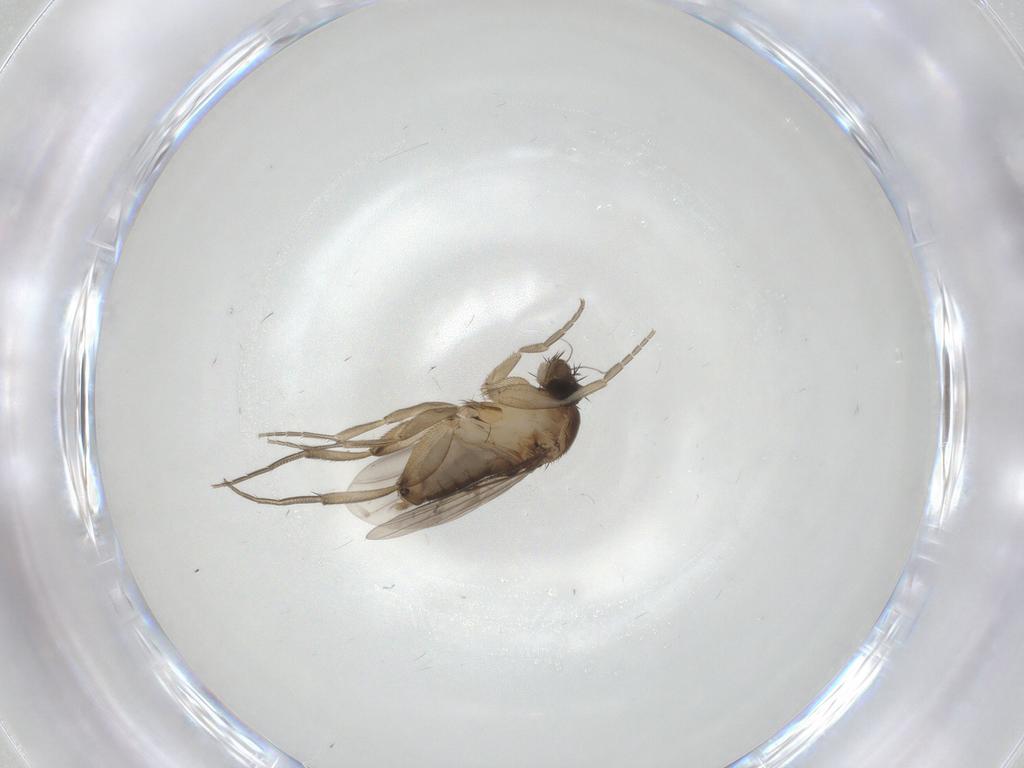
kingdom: Animalia
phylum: Arthropoda
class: Insecta
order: Diptera
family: Phoridae
